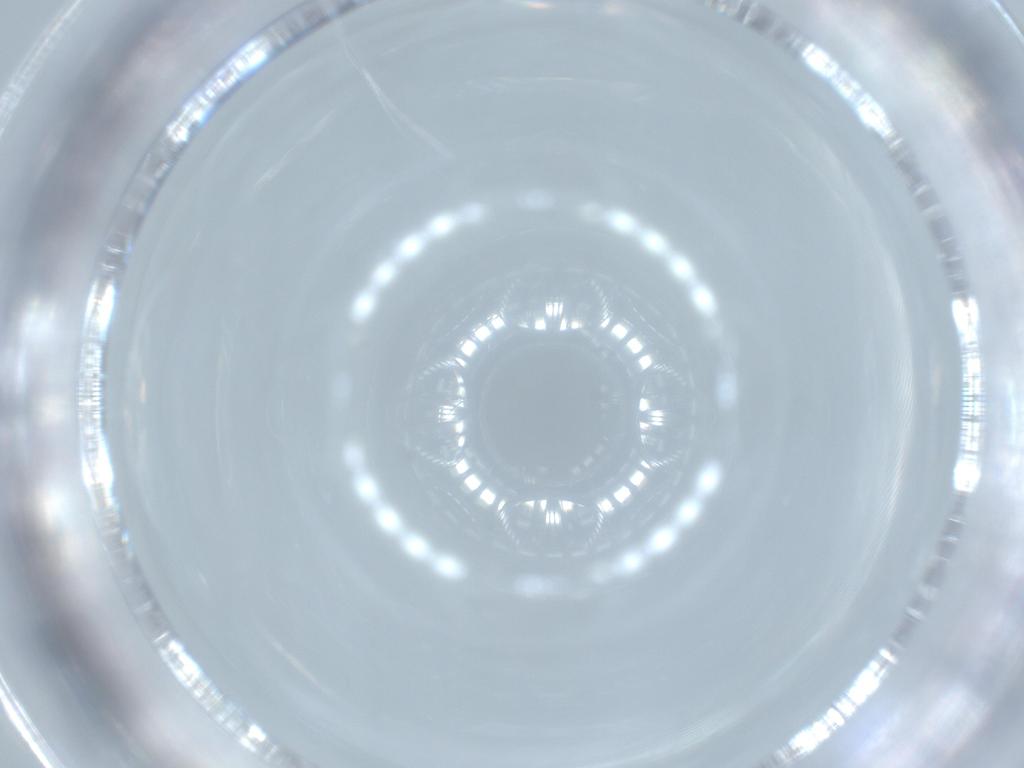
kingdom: Animalia
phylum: Arthropoda
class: Insecta
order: Coleoptera
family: Anthicidae
